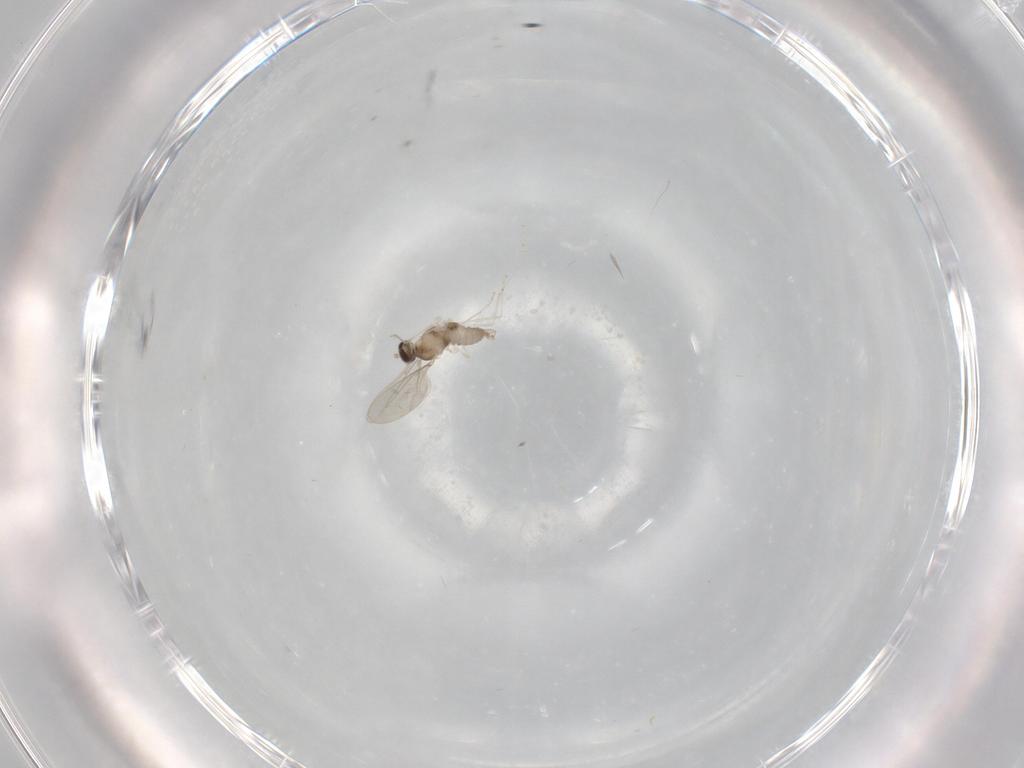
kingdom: Animalia
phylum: Arthropoda
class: Insecta
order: Diptera
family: Cecidomyiidae
